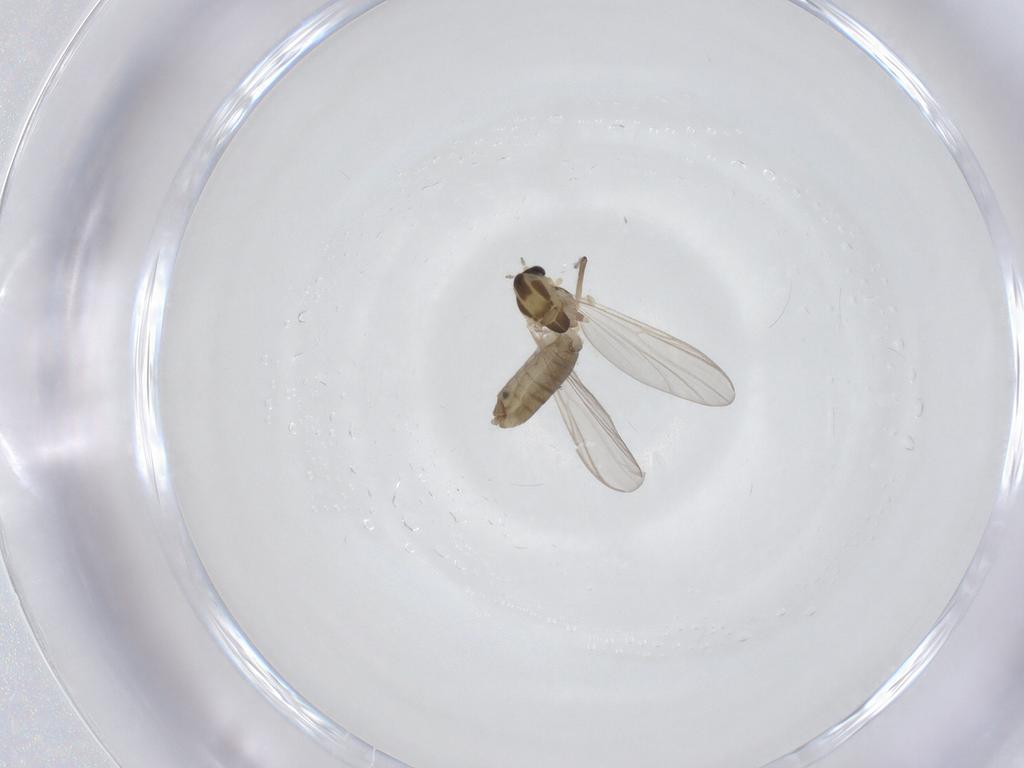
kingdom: Animalia
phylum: Arthropoda
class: Insecta
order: Diptera
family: Chironomidae
